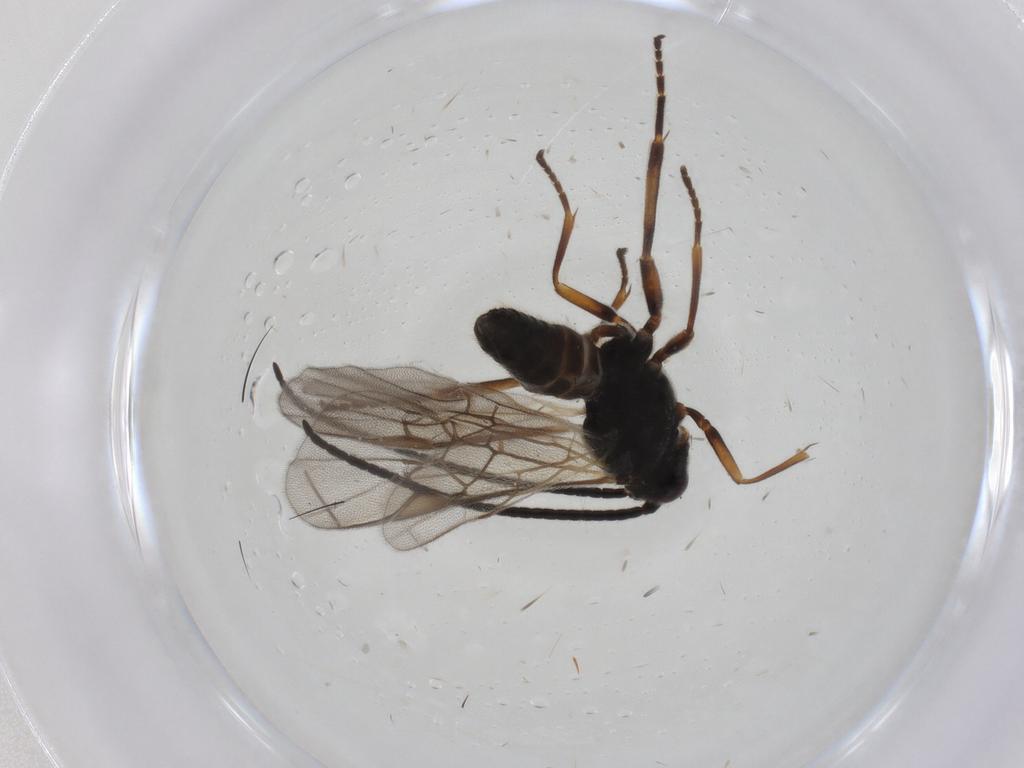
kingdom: Animalia
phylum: Arthropoda
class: Insecta
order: Hymenoptera
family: Braconidae
